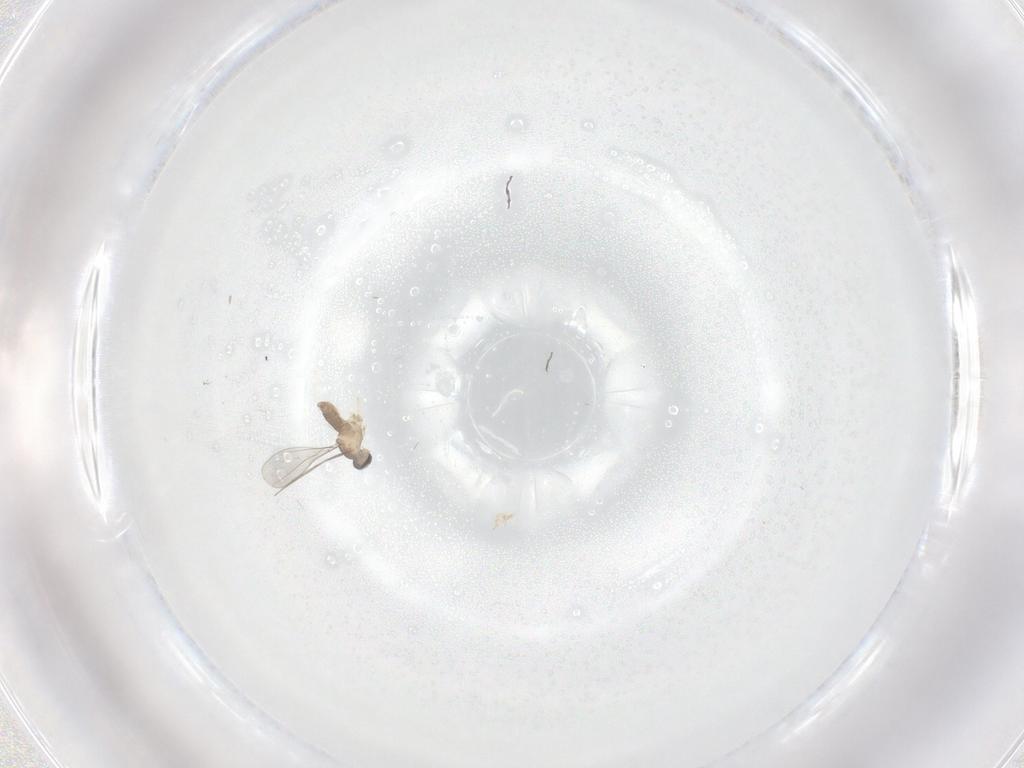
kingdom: Animalia
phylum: Arthropoda
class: Insecta
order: Diptera
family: Cecidomyiidae
